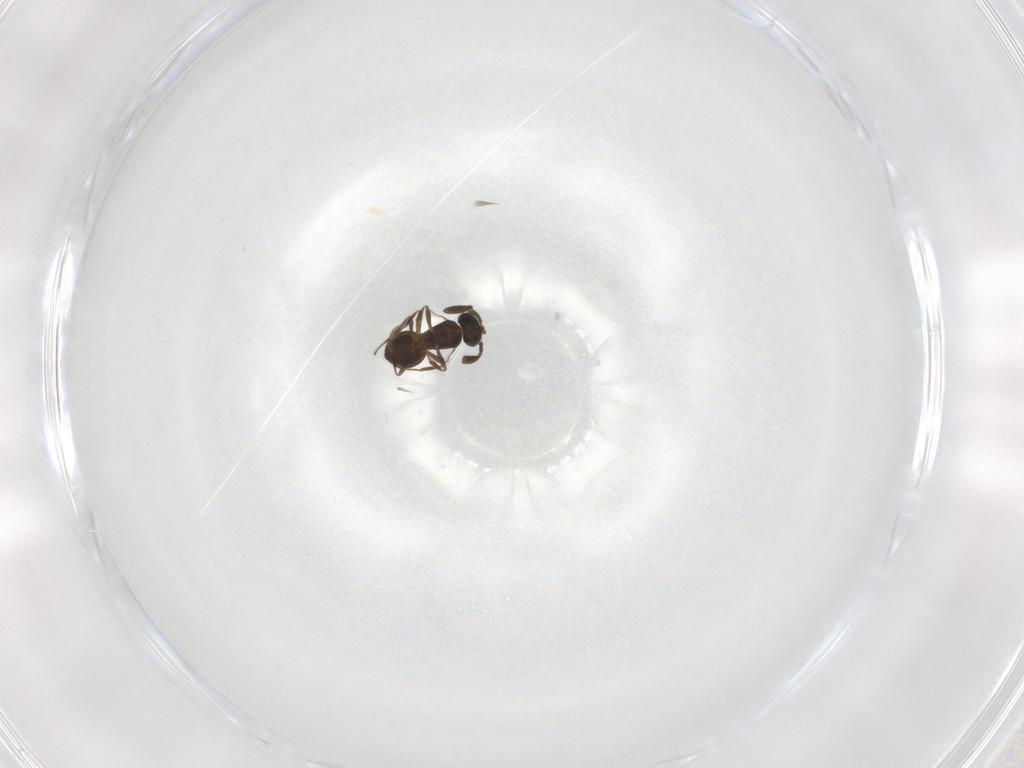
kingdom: Animalia
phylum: Arthropoda
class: Insecta
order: Hymenoptera
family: Scelionidae
